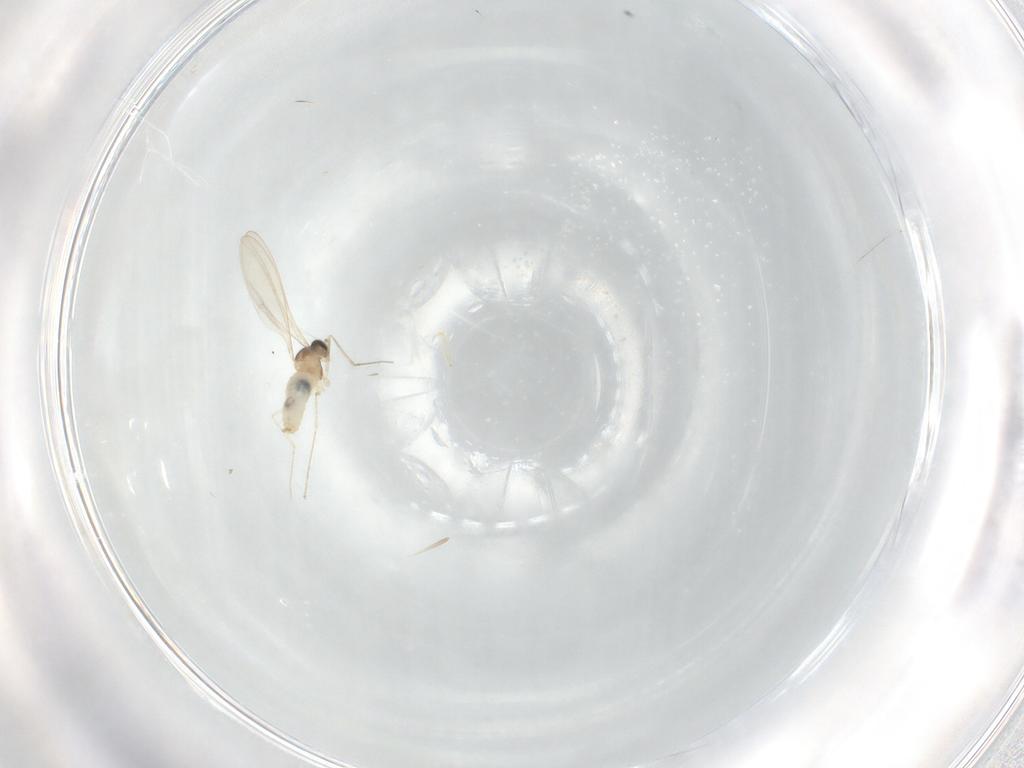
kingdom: Animalia
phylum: Arthropoda
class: Insecta
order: Diptera
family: Cecidomyiidae
